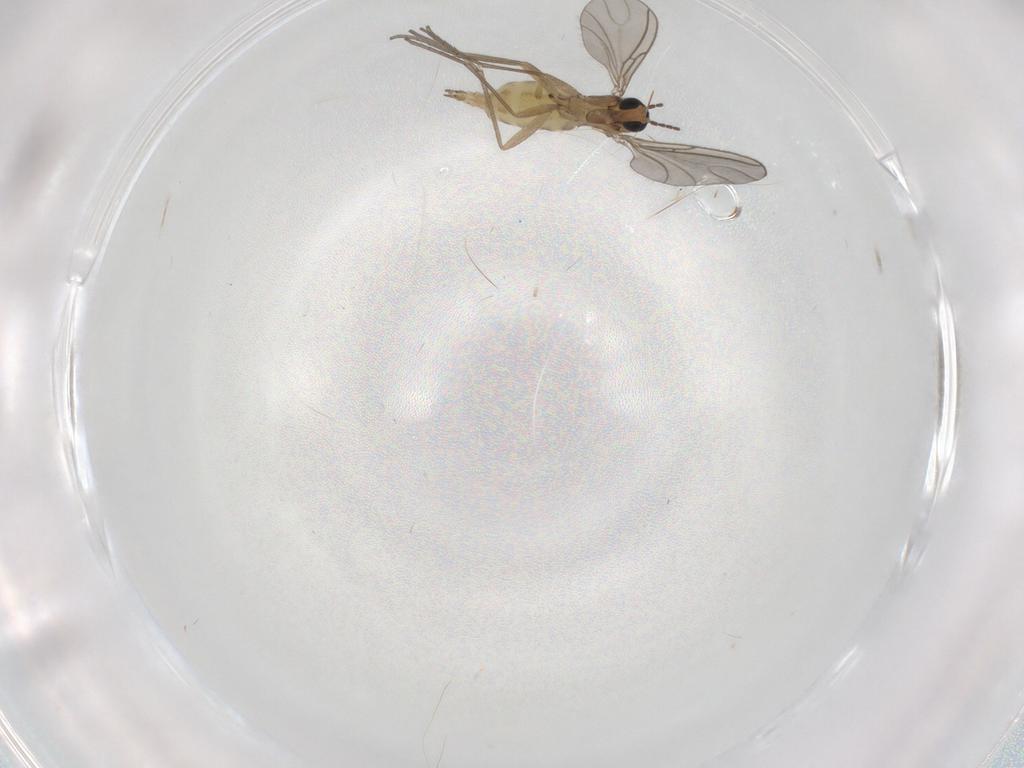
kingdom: Animalia
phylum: Arthropoda
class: Insecta
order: Diptera
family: Sciaridae
